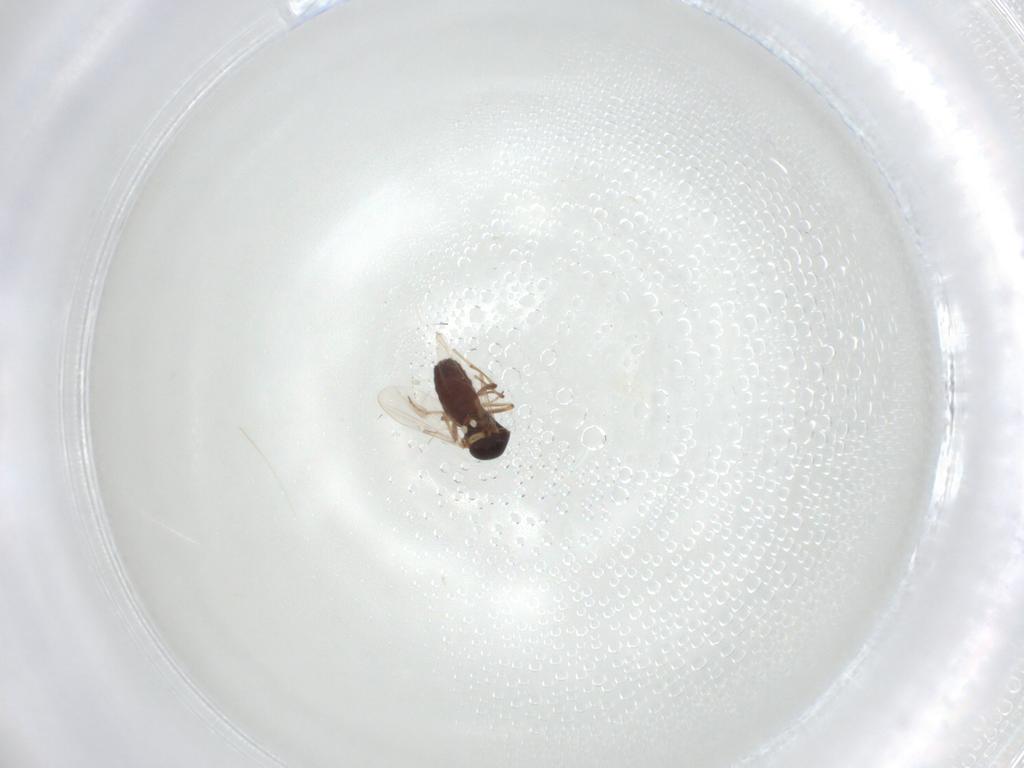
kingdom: Animalia
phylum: Arthropoda
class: Insecta
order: Diptera
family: Ceratopogonidae
